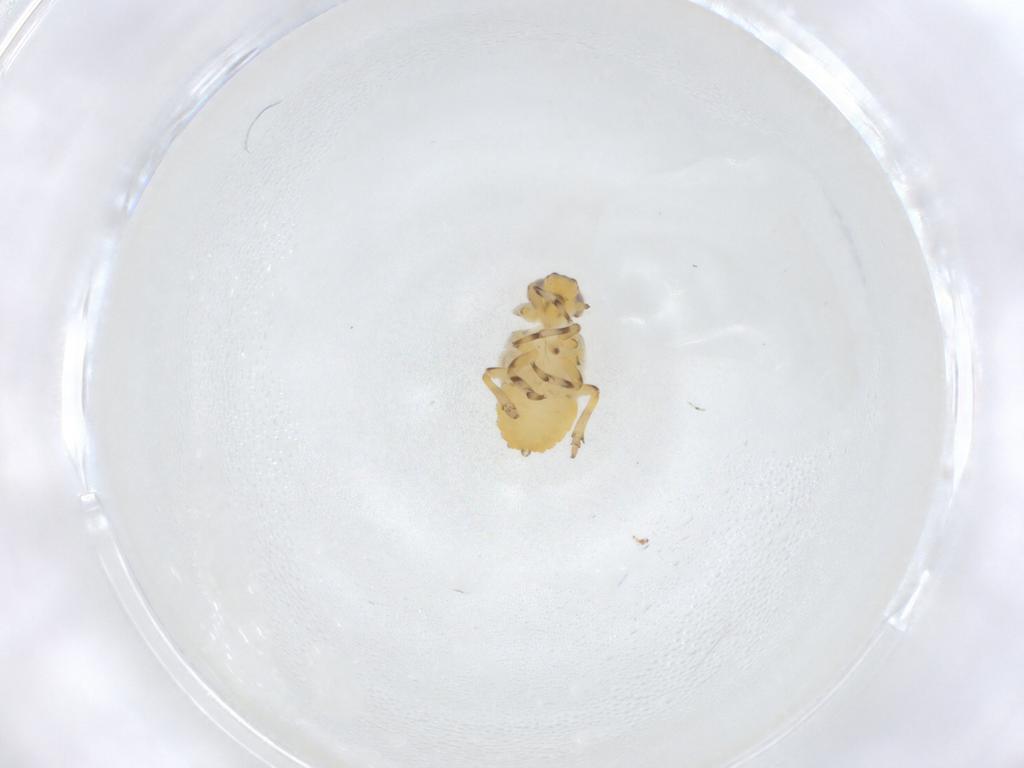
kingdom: Animalia
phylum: Arthropoda
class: Insecta
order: Hemiptera
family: Issidae
